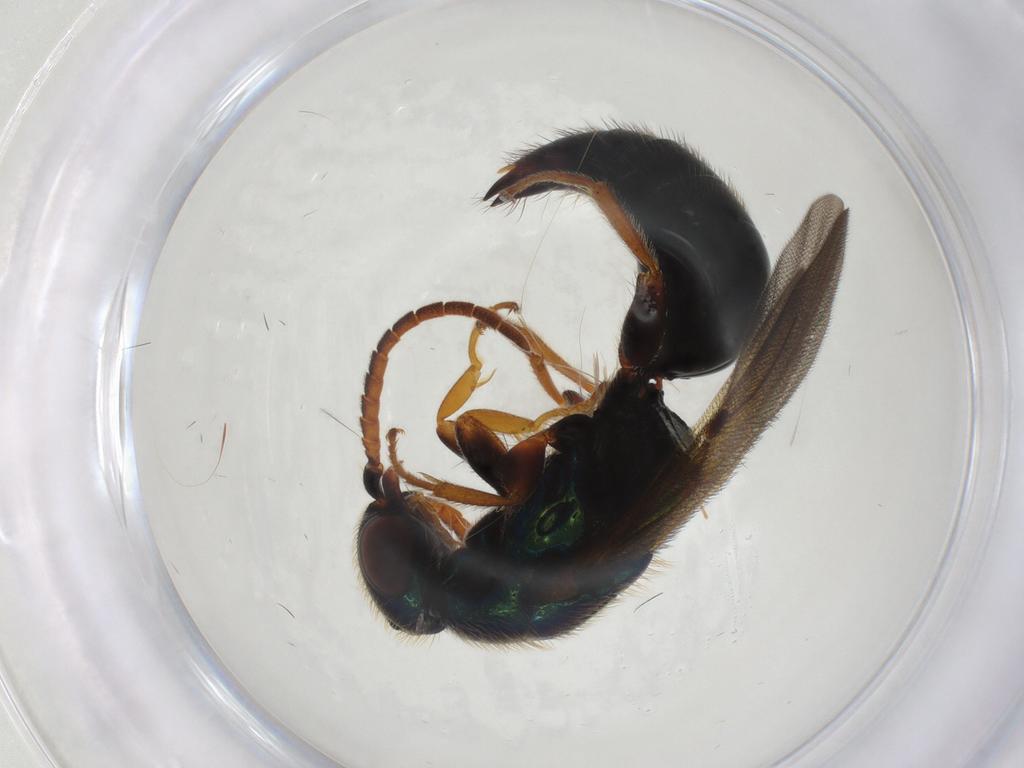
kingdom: Animalia
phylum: Arthropoda
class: Insecta
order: Hymenoptera
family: Bethylidae
